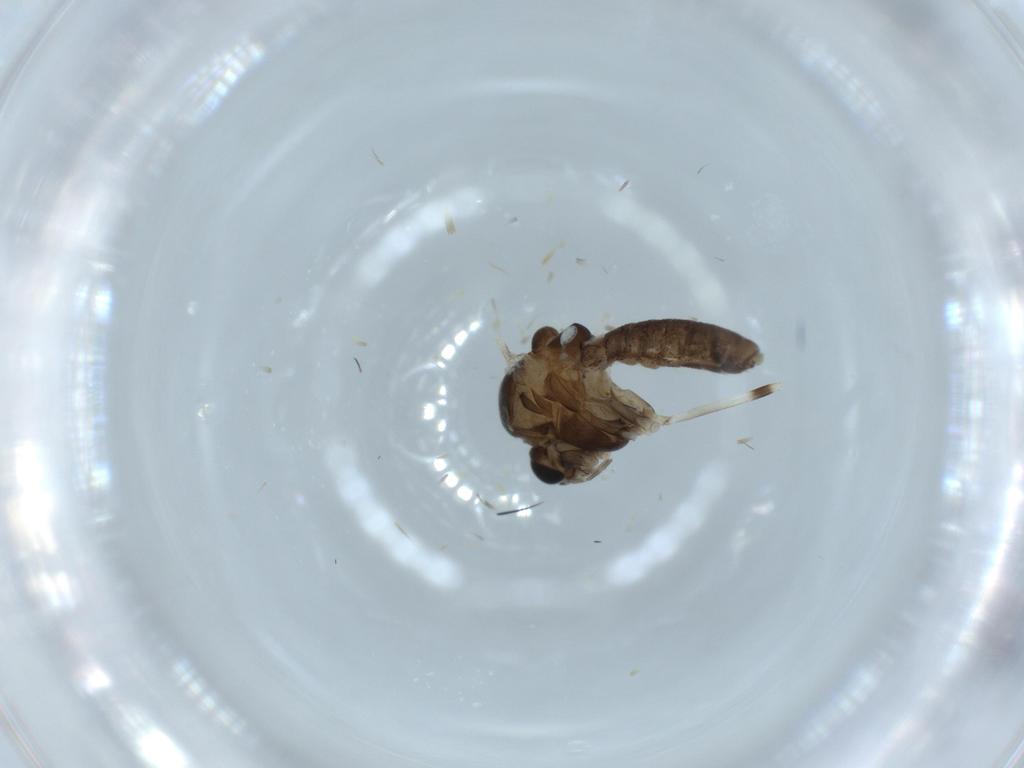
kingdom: Animalia
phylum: Arthropoda
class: Insecta
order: Diptera
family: Chironomidae
